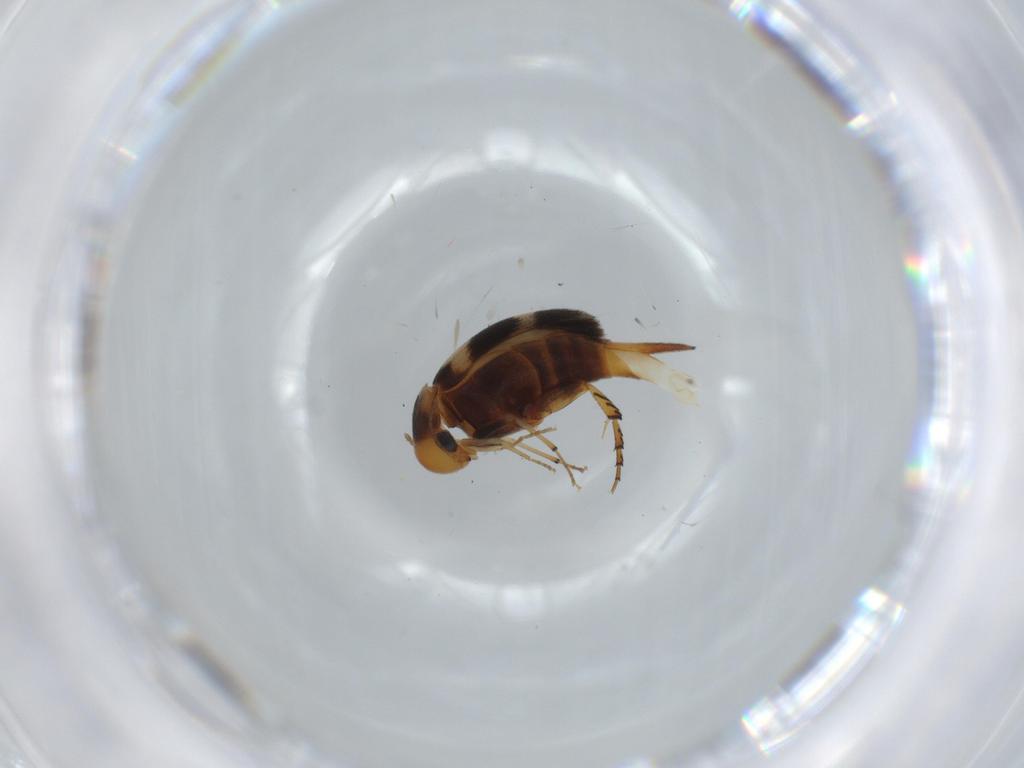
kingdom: Animalia
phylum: Arthropoda
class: Insecta
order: Coleoptera
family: Mordellidae
